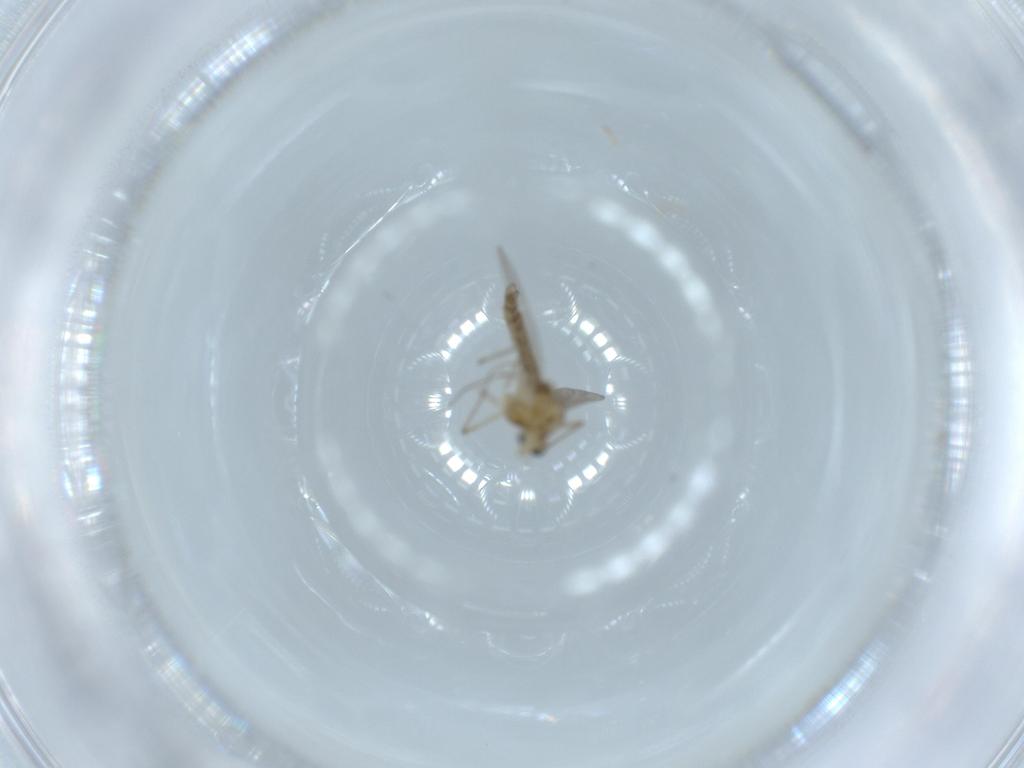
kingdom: Animalia
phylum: Arthropoda
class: Insecta
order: Diptera
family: Chironomidae
